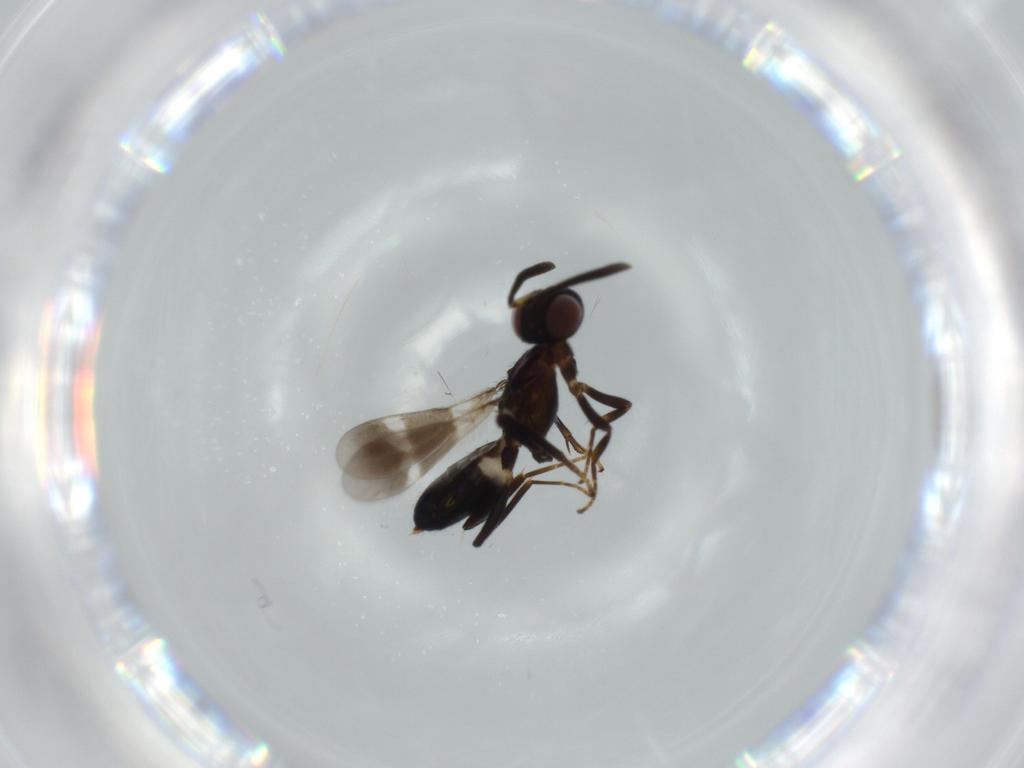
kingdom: Animalia
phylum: Arthropoda
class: Insecta
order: Hymenoptera
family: Eupelmidae
